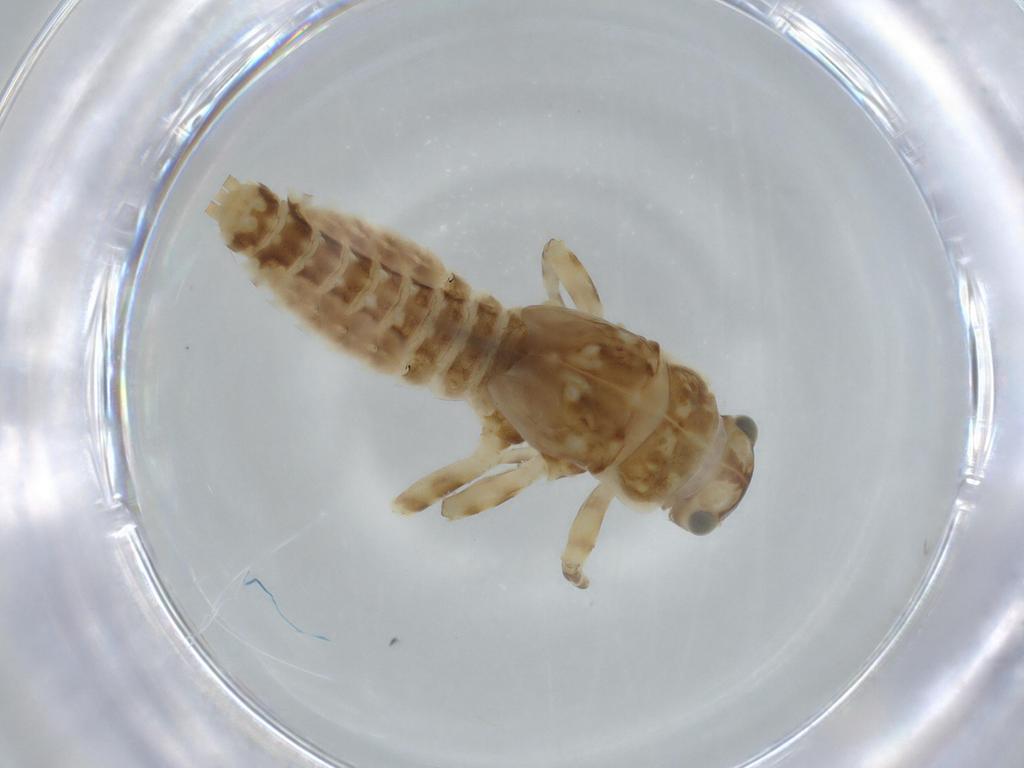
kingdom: Animalia
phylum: Arthropoda
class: Insecta
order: Ephemeroptera
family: Ephemerellidae
